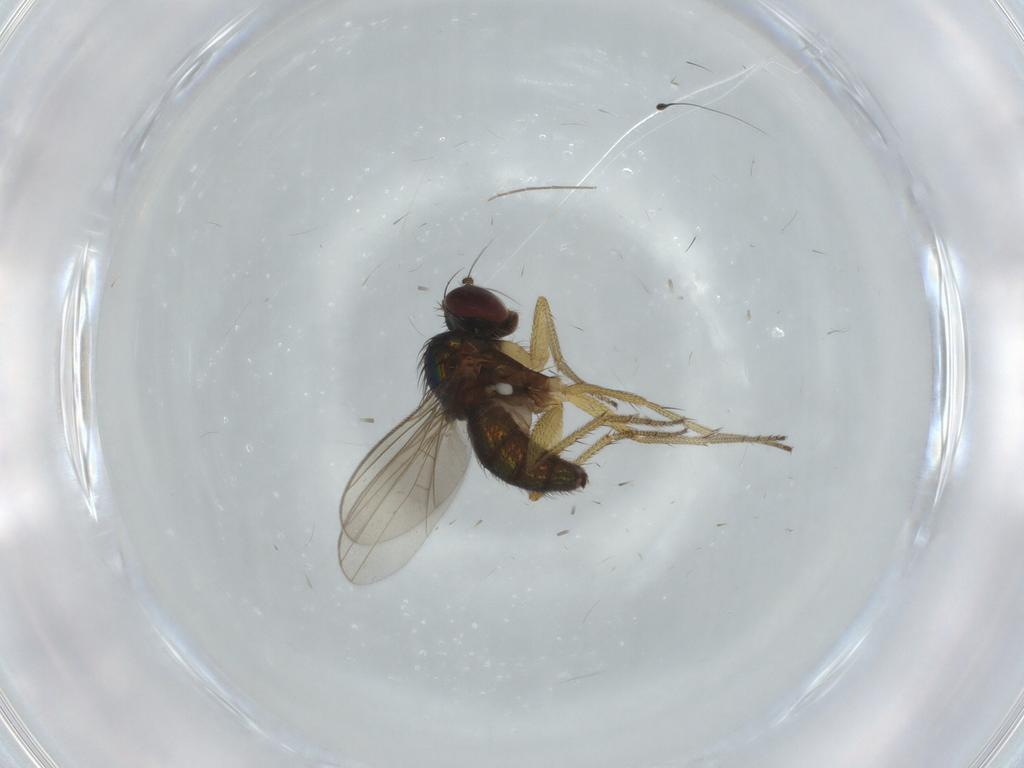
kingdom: Animalia
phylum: Arthropoda
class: Insecta
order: Diptera
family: Dolichopodidae
